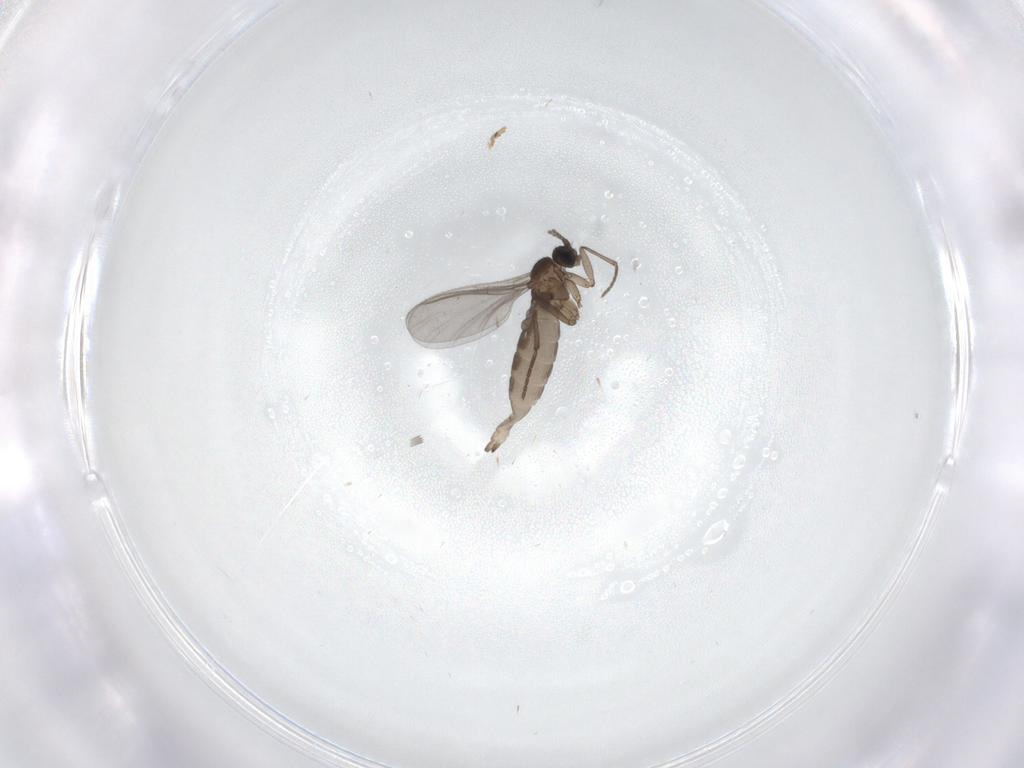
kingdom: Animalia
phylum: Arthropoda
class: Insecta
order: Diptera
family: Sciaridae
